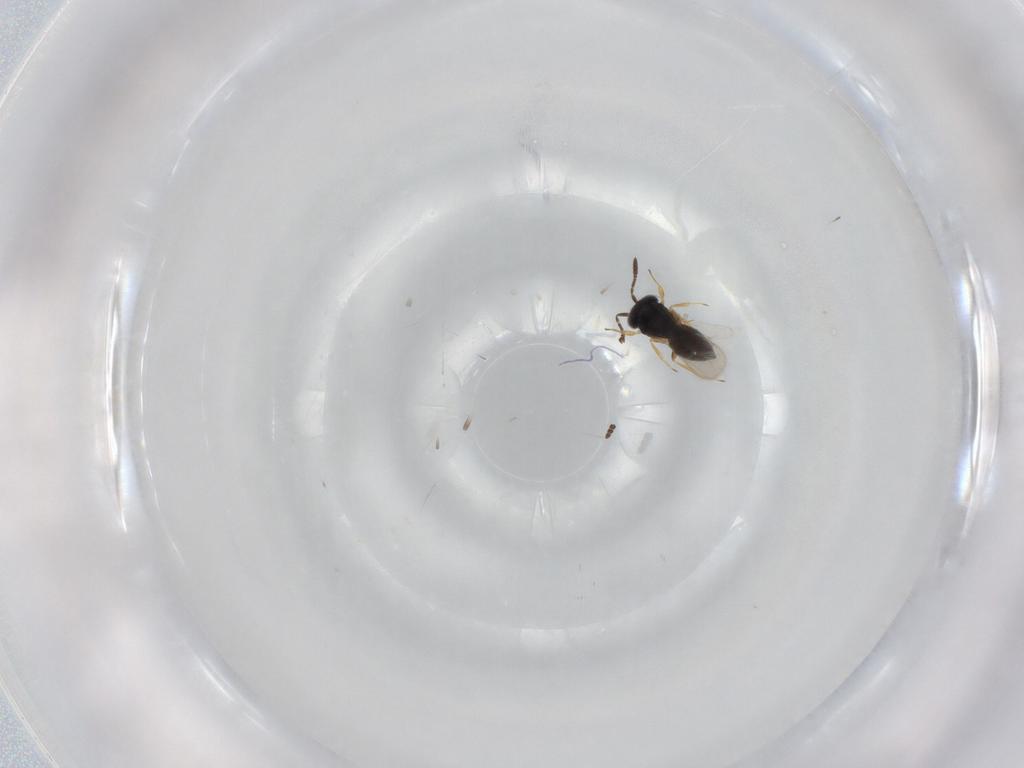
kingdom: Animalia
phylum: Arthropoda
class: Insecta
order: Hymenoptera
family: Scelionidae
